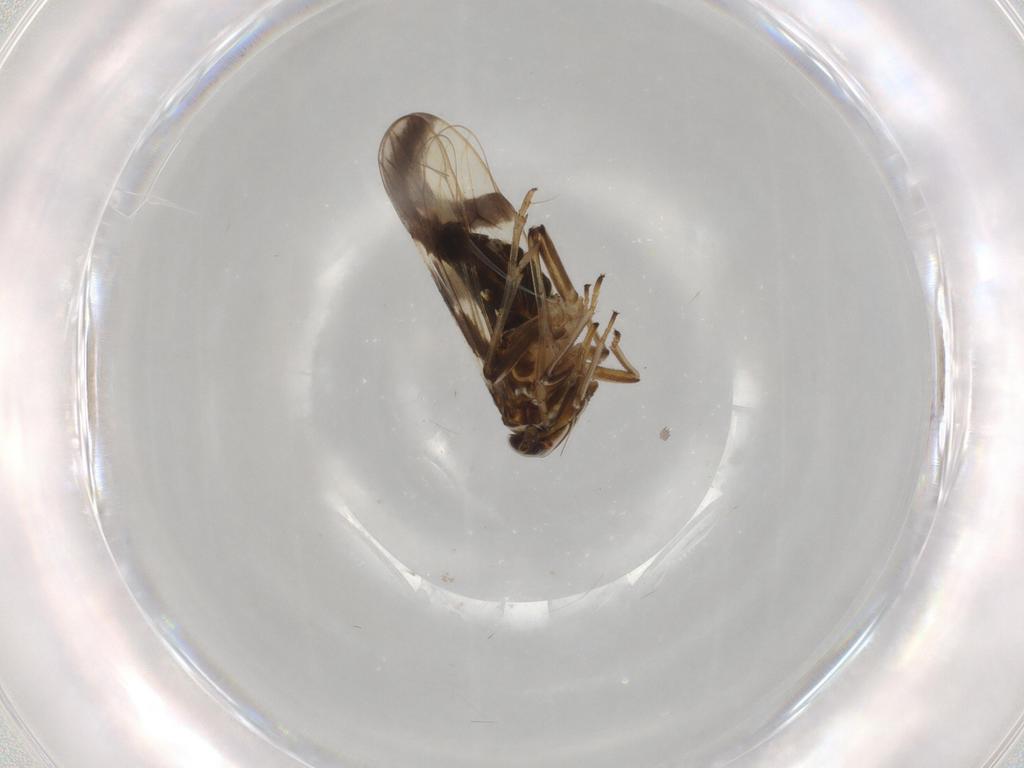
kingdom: Animalia
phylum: Arthropoda
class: Insecta
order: Hemiptera
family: Delphacidae
